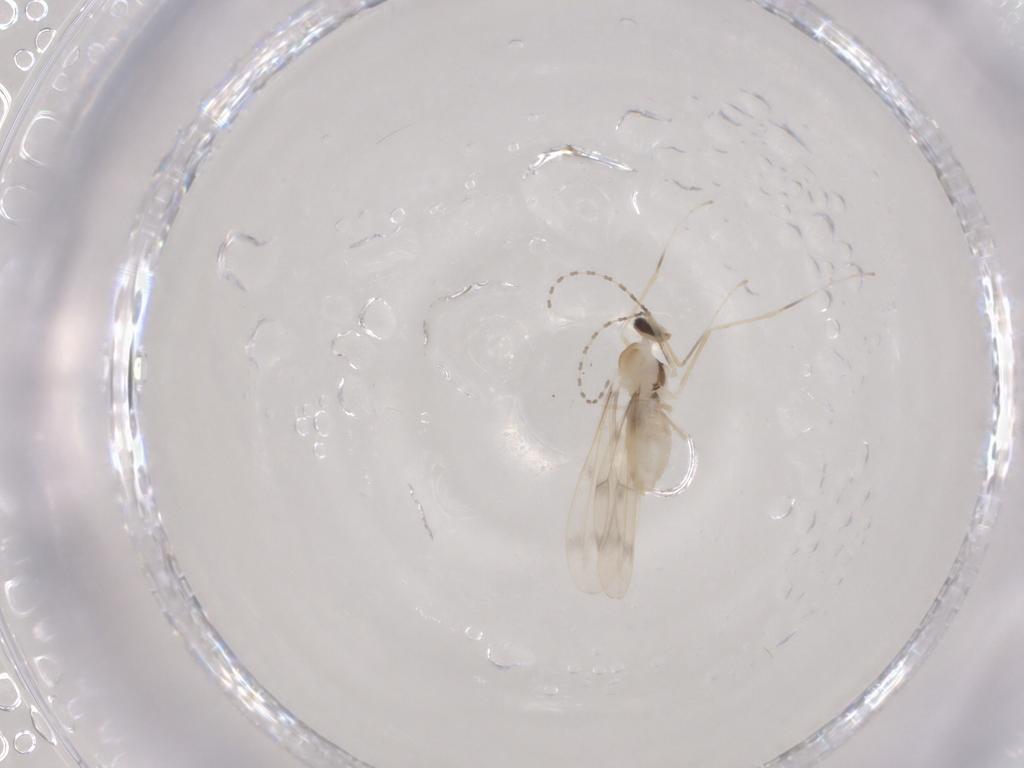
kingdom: Animalia
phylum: Arthropoda
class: Insecta
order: Diptera
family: Cecidomyiidae
